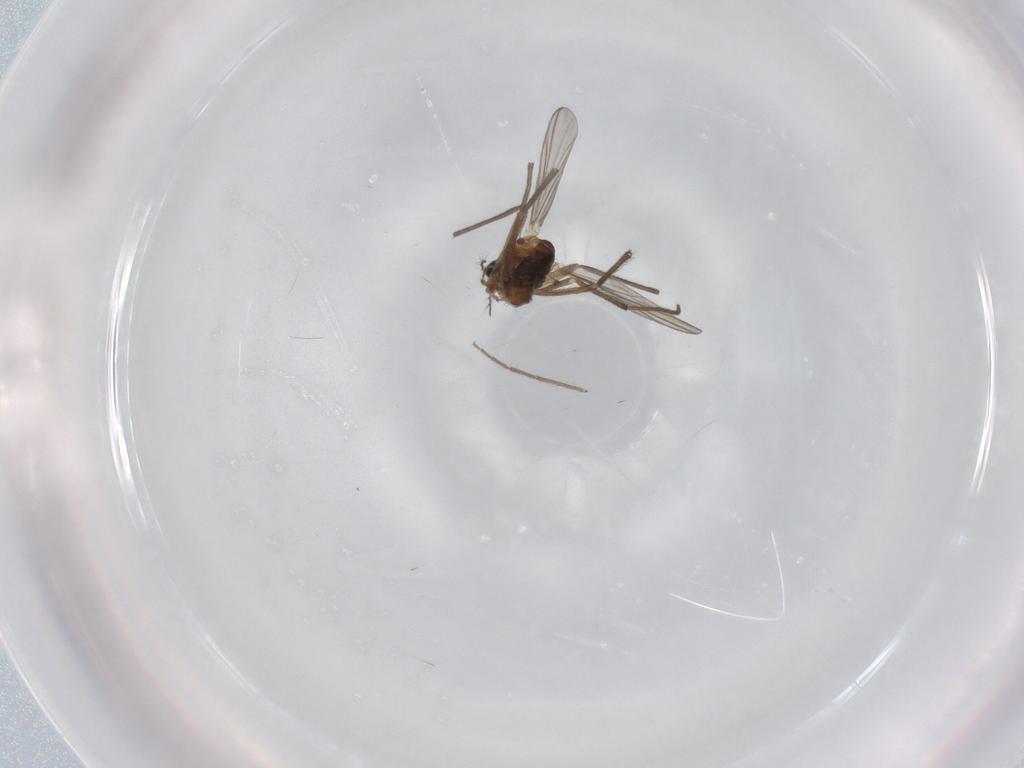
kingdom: Animalia
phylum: Arthropoda
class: Insecta
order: Diptera
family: Chironomidae
